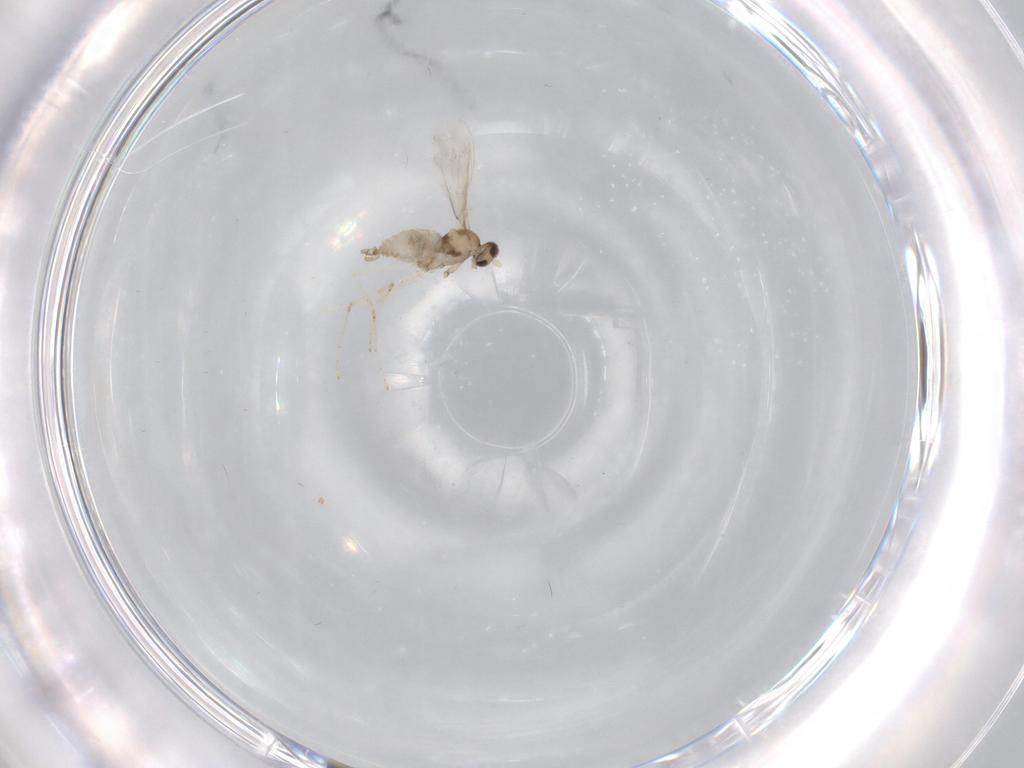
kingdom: Animalia
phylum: Arthropoda
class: Insecta
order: Diptera
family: Cecidomyiidae
